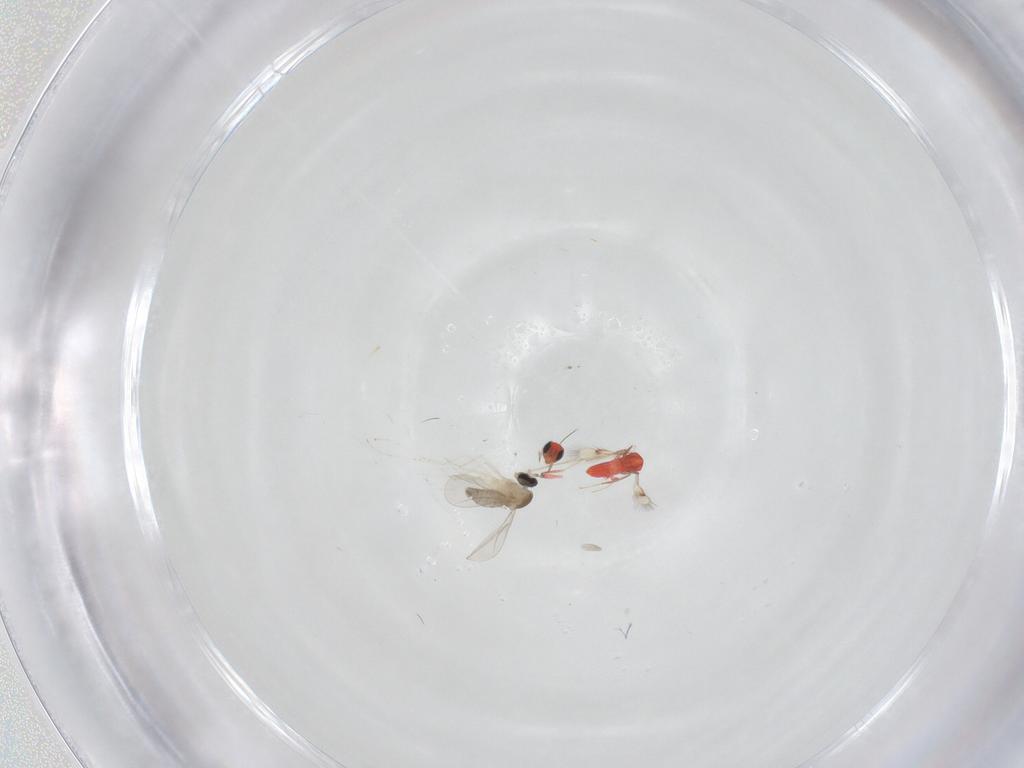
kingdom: Animalia
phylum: Arthropoda
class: Insecta
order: Diptera
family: Cecidomyiidae
